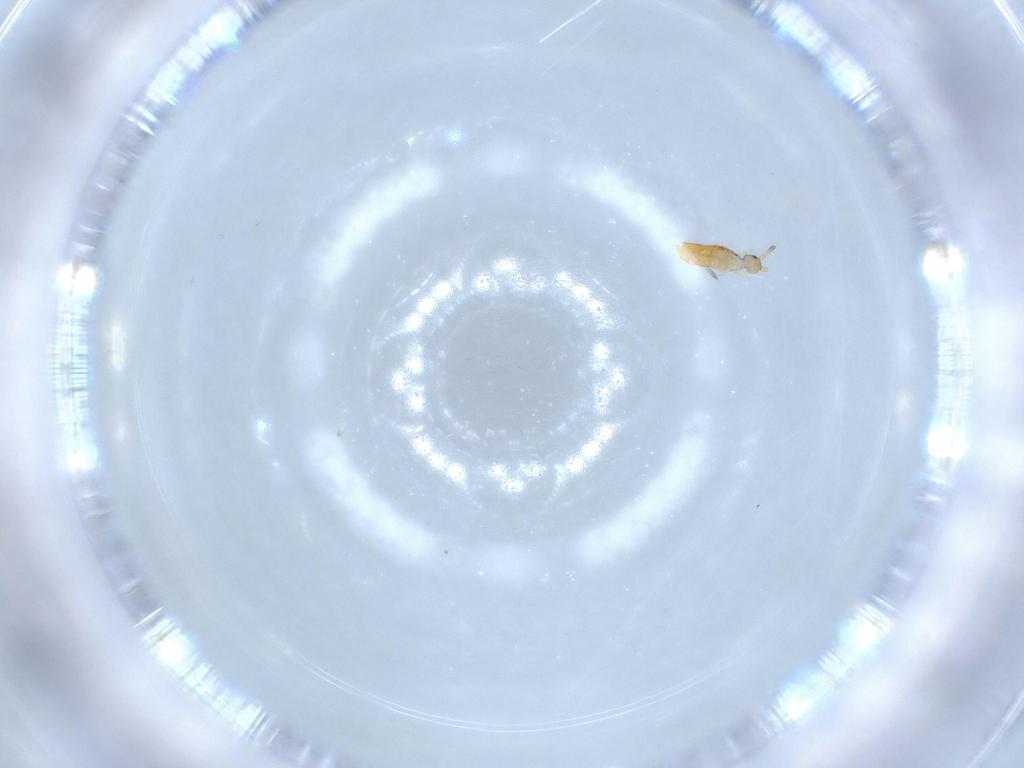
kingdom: Animalia
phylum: Arthropoda
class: Collembola
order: Entomobryomorpha
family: Entomobryidae
